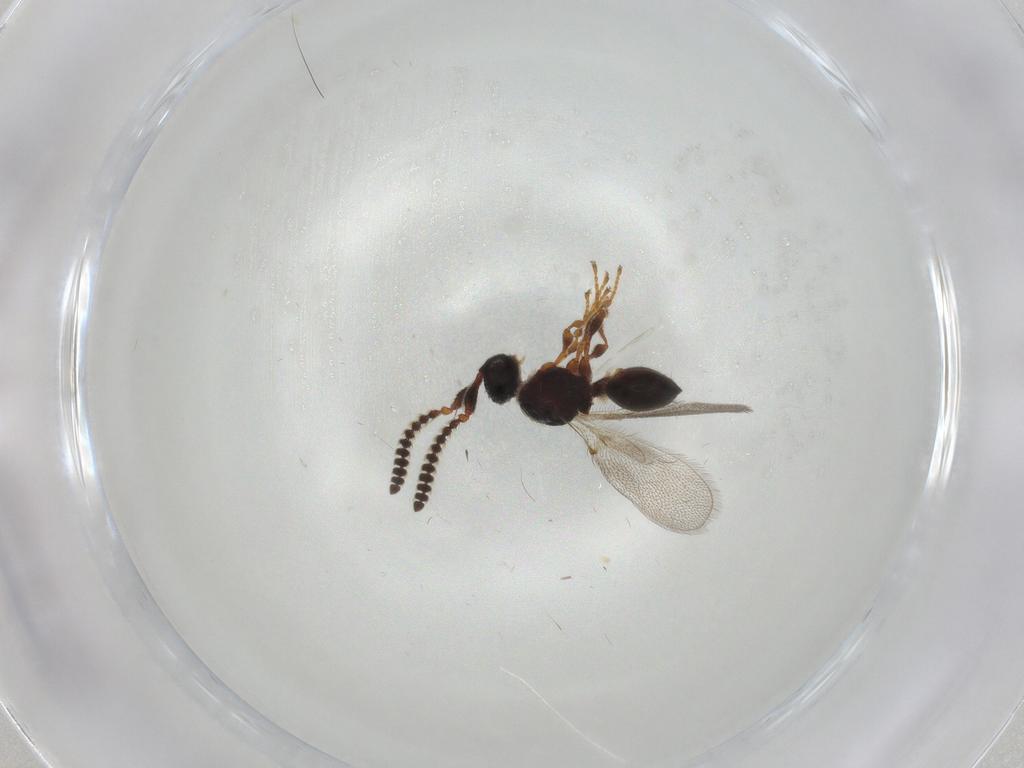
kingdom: Animalia
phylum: Arthropoda
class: Insecta
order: Hymenoptera
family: Diapriidae
